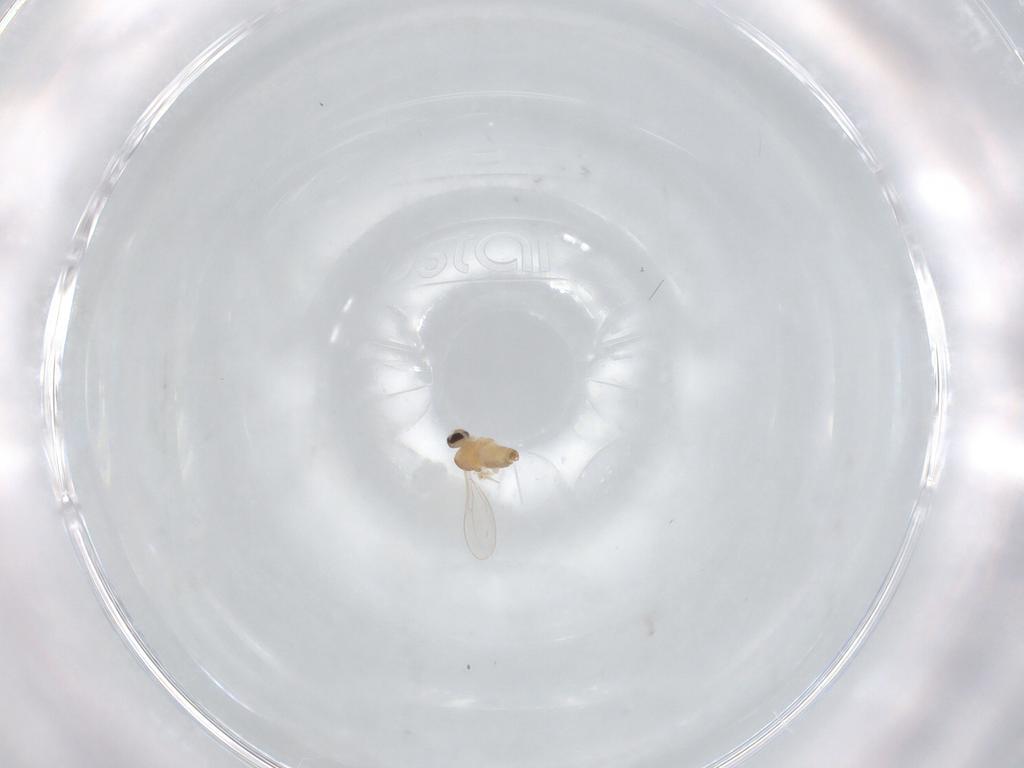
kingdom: Animalia
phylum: Arthropoda
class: Insecta
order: Diptera
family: Cecidomyiidae
